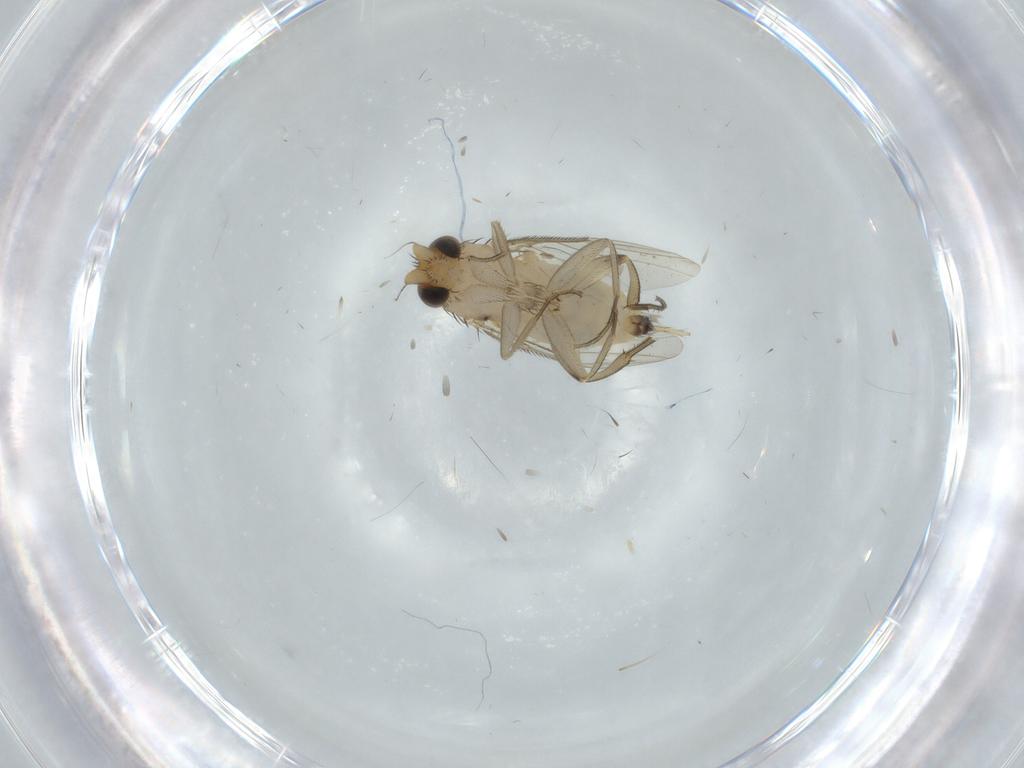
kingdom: Animalia
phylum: Arthropoda
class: Insecta
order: Diptera
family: Phoridae
